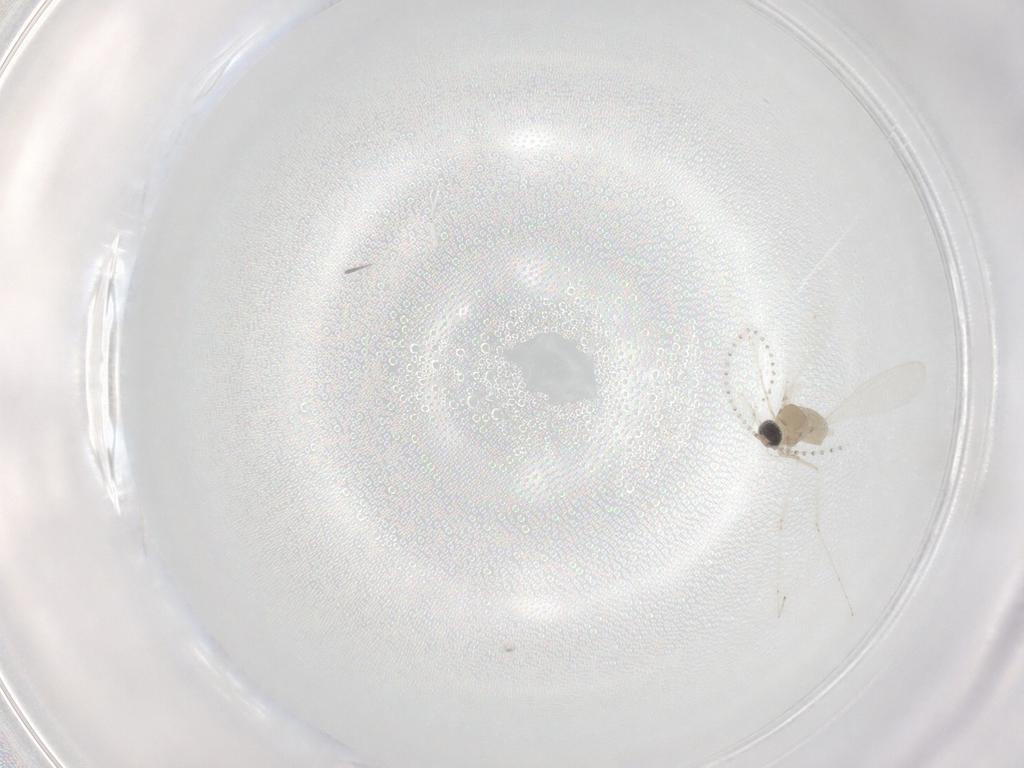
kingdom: Animalia
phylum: Arthropoda
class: Insecta
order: Diptera
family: Cecidomyiidae
